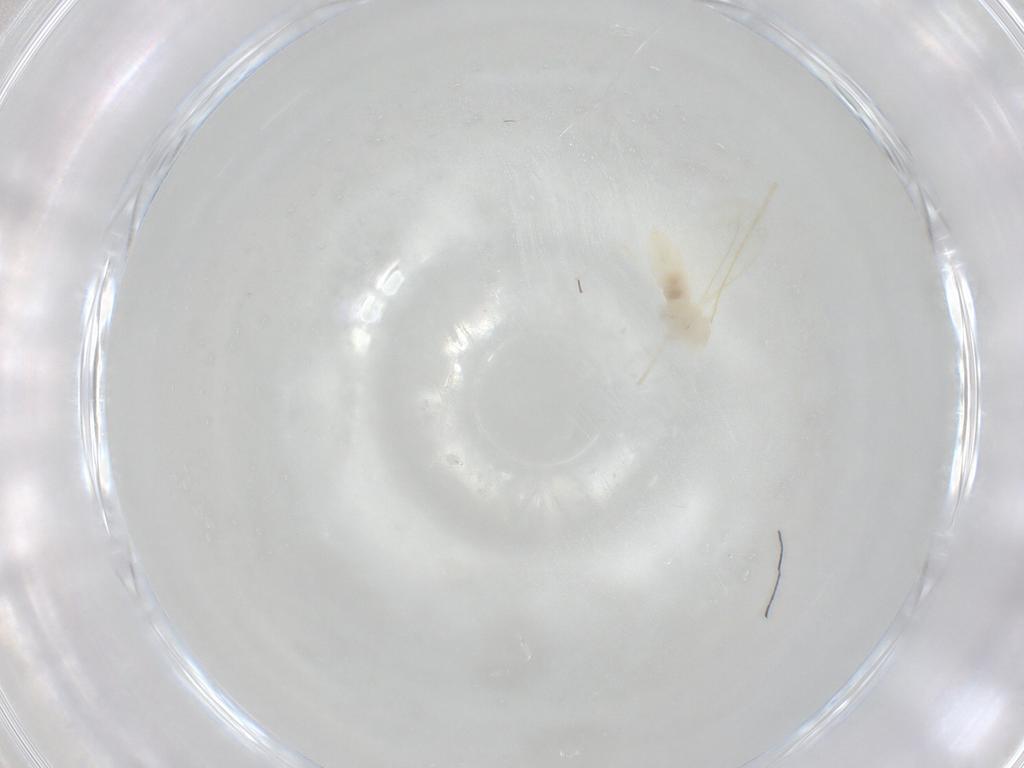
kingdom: Animalia
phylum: Arthropoda
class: Insecta
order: Diptera
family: Cecidomyiidae
